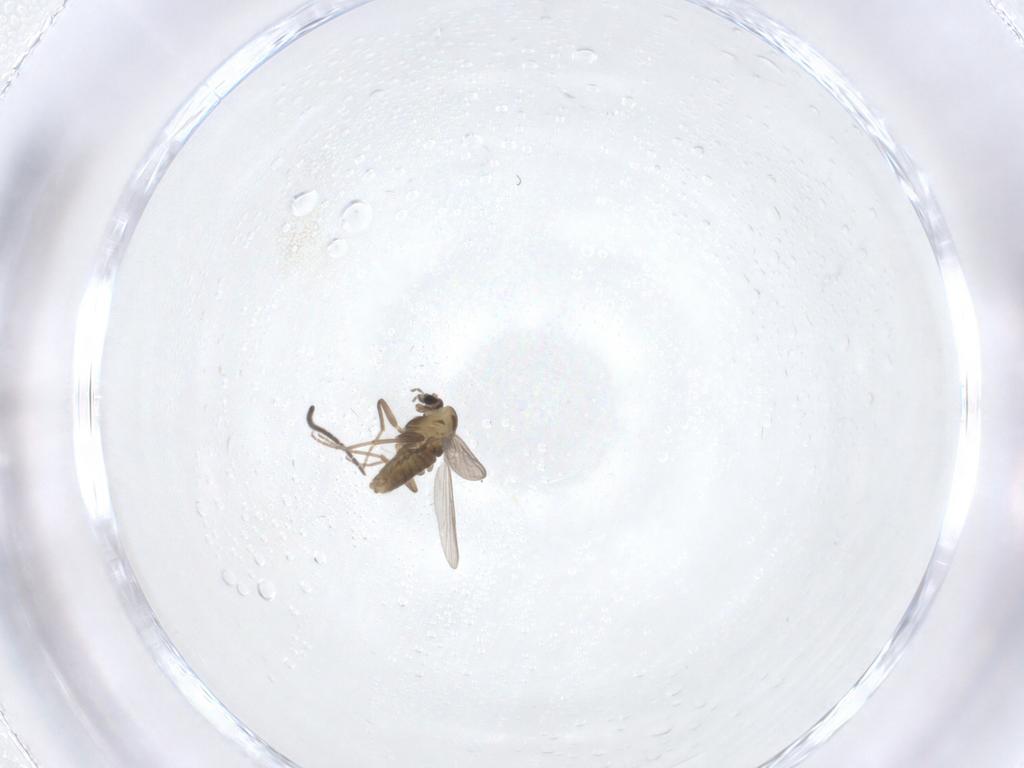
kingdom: Animalia
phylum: Arthropoda
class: Insecta
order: Diptera
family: Chironomidae
